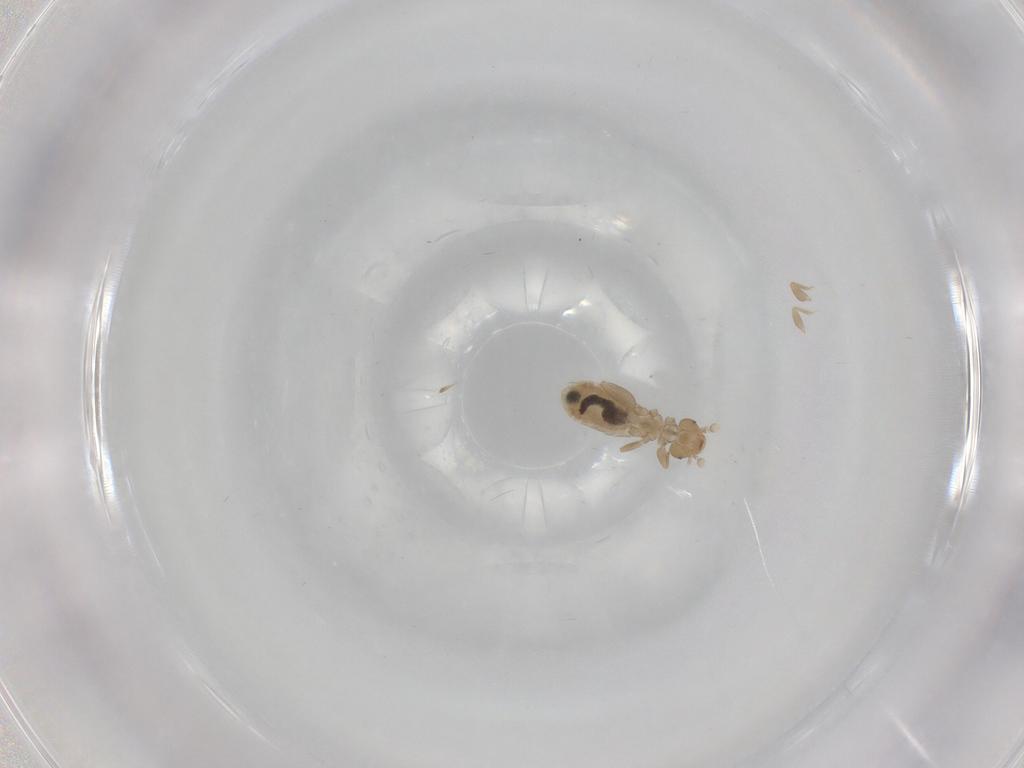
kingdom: Animalia
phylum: Arthropoda
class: Insecta
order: Psocodea
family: Liposcelididae
